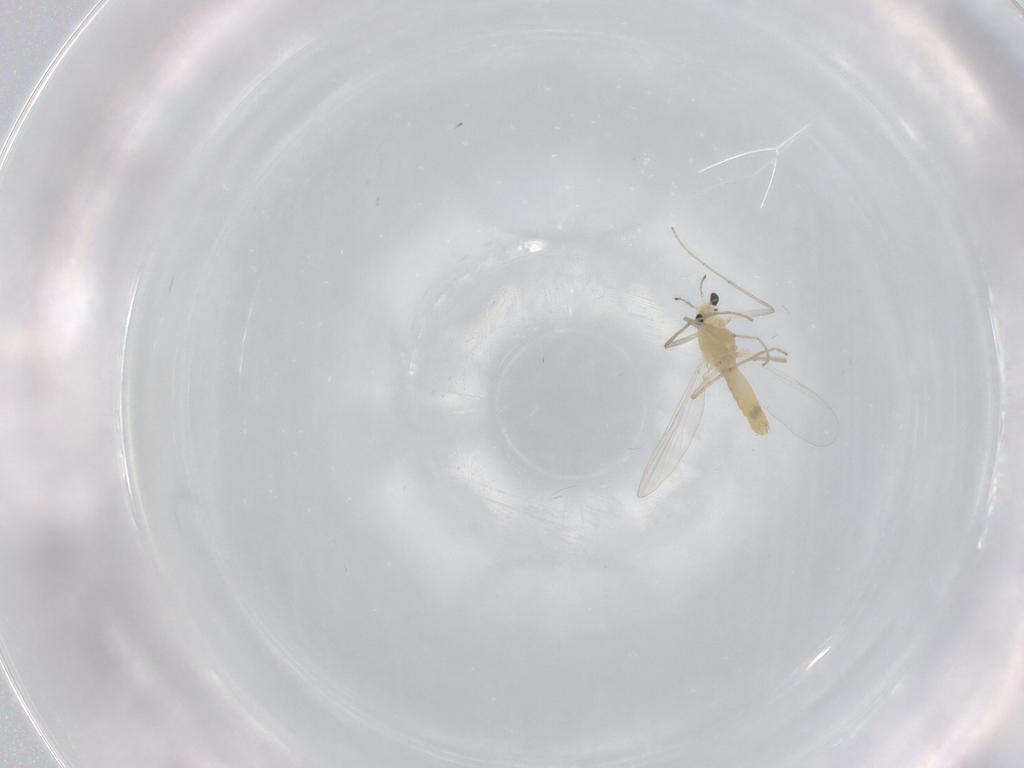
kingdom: Animalia
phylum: Arthropoda
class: Insecta
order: Diptera
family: Chironomidae
